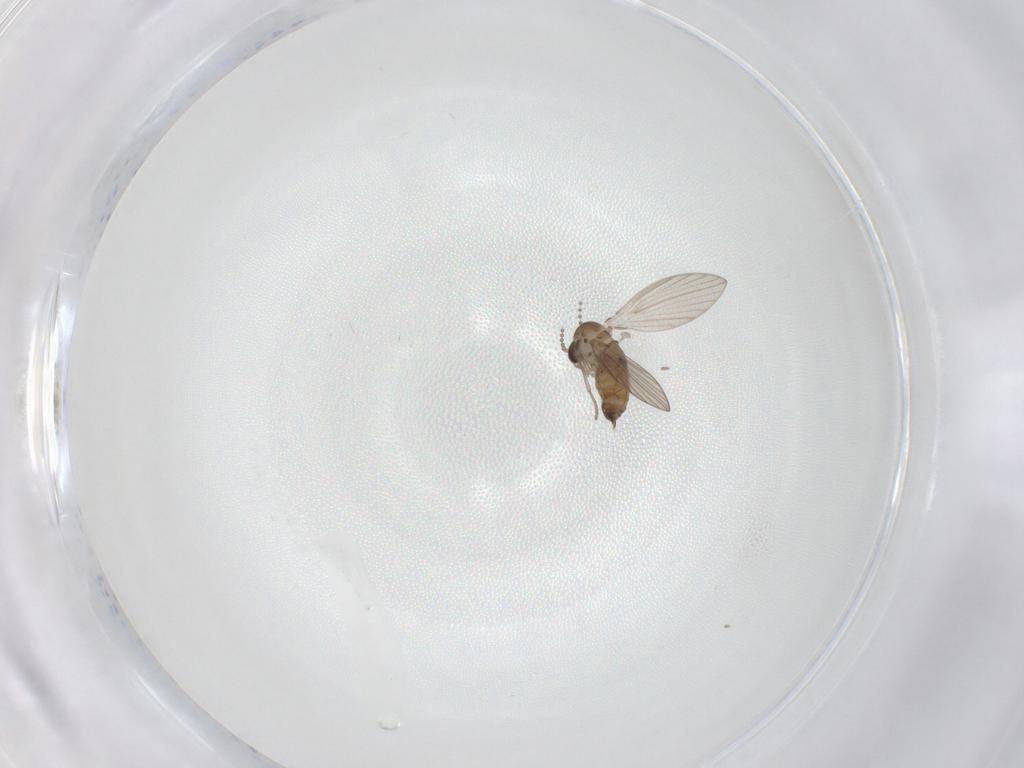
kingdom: Animalia
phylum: Arthropoda
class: Insecta
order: Diptera
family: Psychodidae
